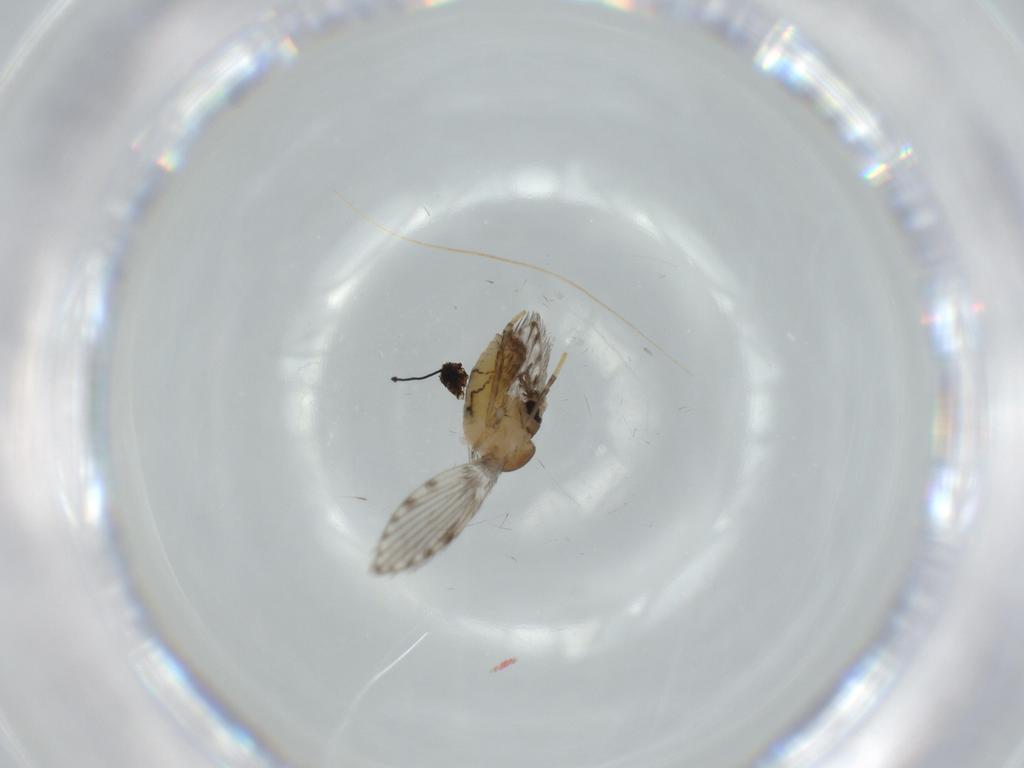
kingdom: Animalia
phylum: Arthropoda
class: Insecta
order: Diptera
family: Psychodidae
